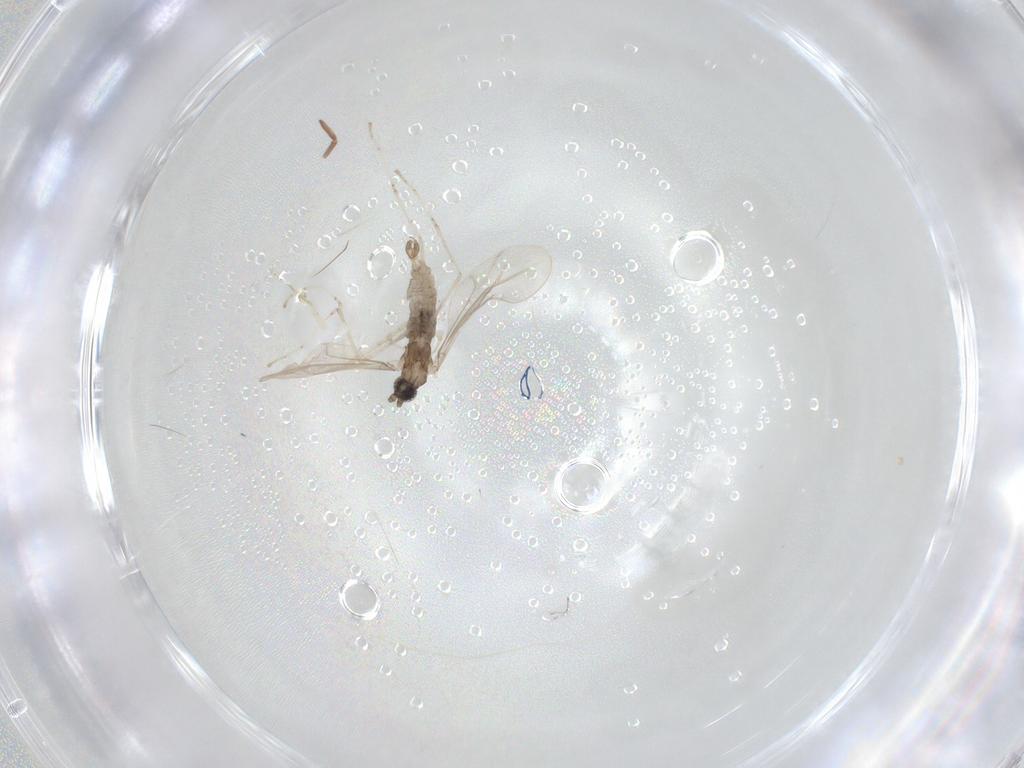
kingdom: Animalia
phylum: Arthropoda
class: Insecta
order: Diptera
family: Cecidomyiidae
